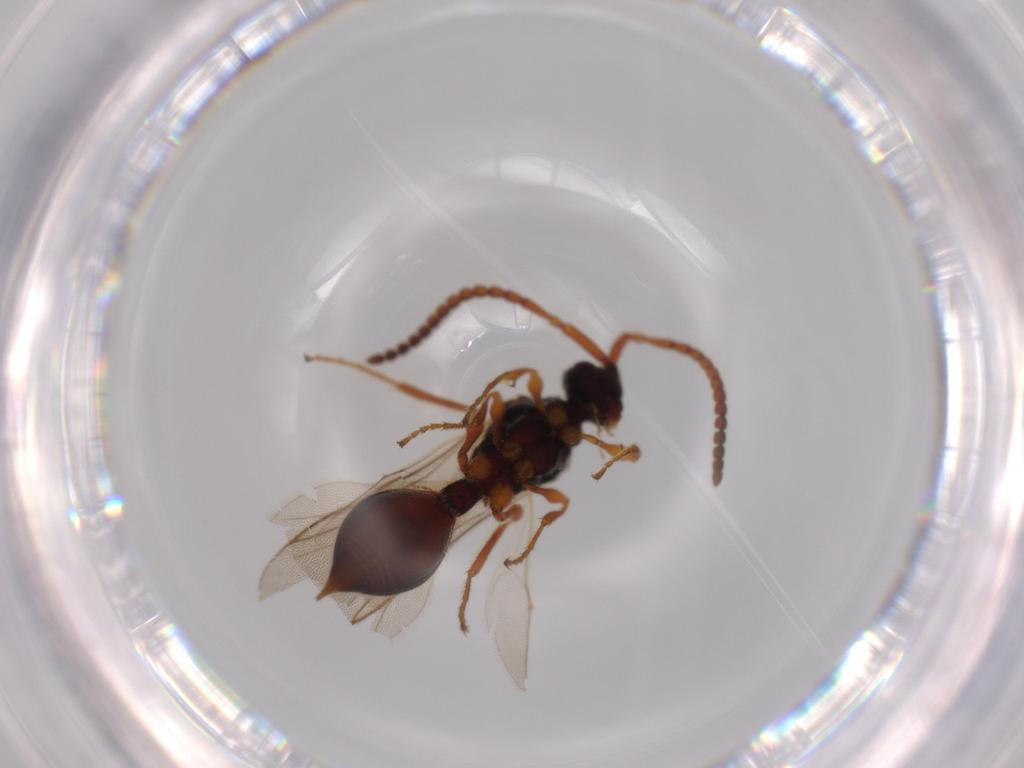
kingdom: Animalia
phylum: Arthropoda
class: Insecta
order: Hymenoptera
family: Diapriidae
